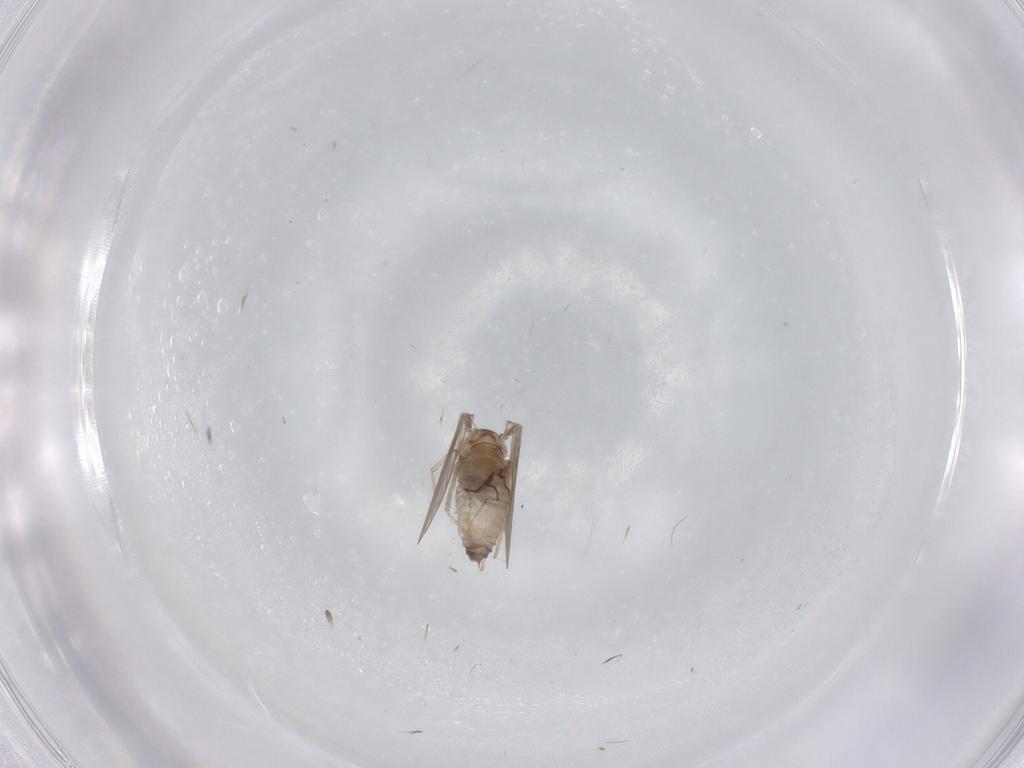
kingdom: Animalia
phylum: Arthropoda
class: Insecta
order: Diptera
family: Psychodidae
